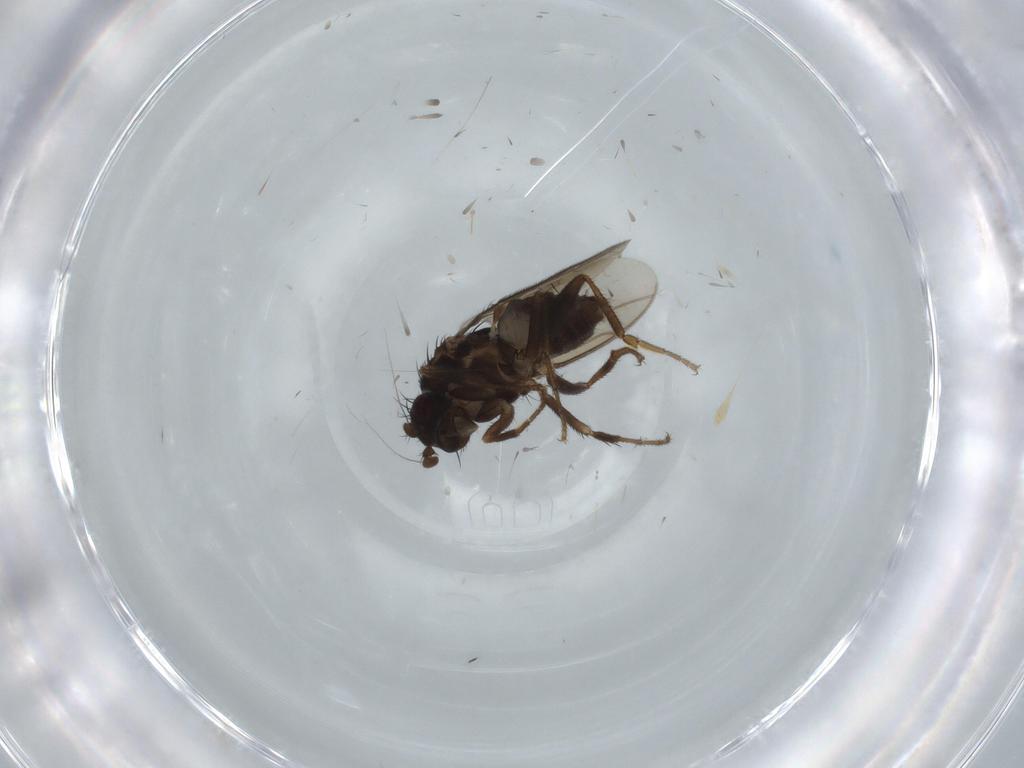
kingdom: Animalia
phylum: Arthropoda
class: Insecta
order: Diptera
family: Sphaeroceridae
